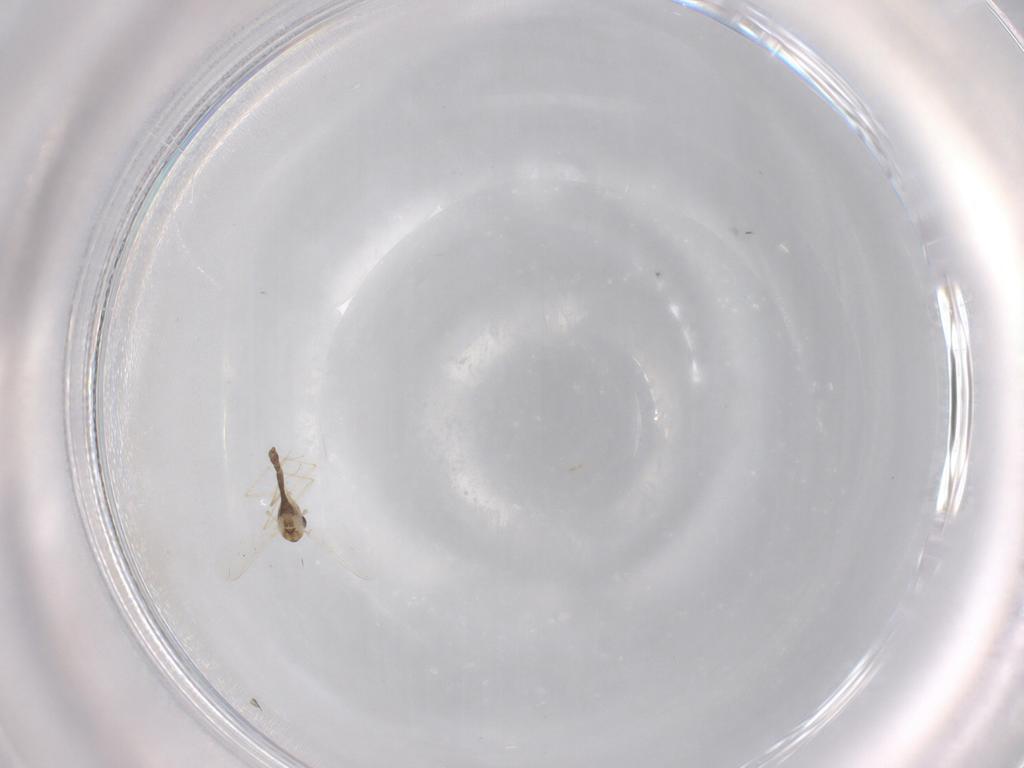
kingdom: Animalia
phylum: Arthropoda
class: Insecta
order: Diptera
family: Chironomidae
